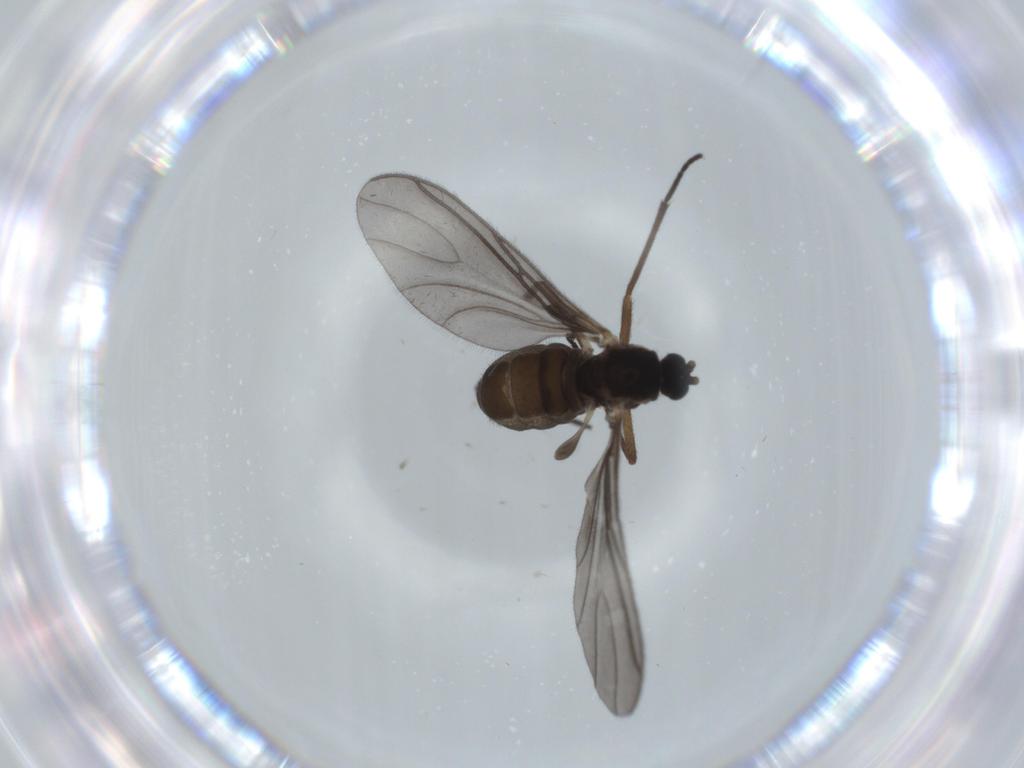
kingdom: Animalia
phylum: Arthropoda
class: Insecta
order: Diptera
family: Sciaridae
